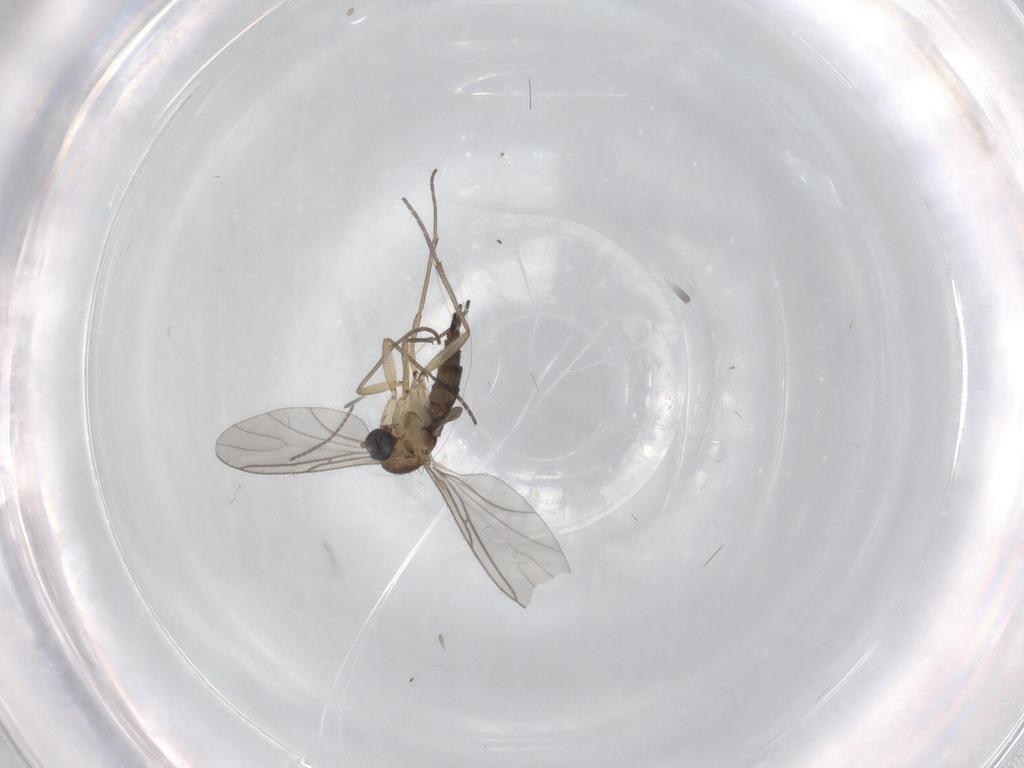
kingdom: Animalia
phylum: Arthropoda
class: Insecta
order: Diptera
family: Sciaridae
